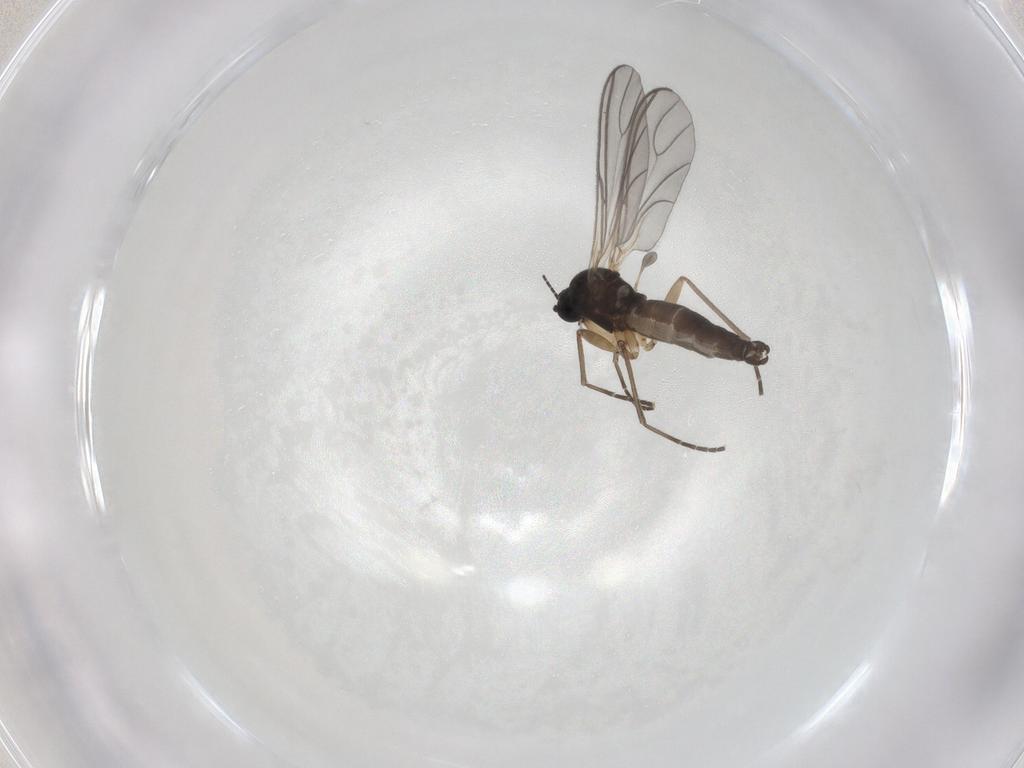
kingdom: Animalia
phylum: Arthropoda
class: Insecta
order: Diptera
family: Sciaridae
